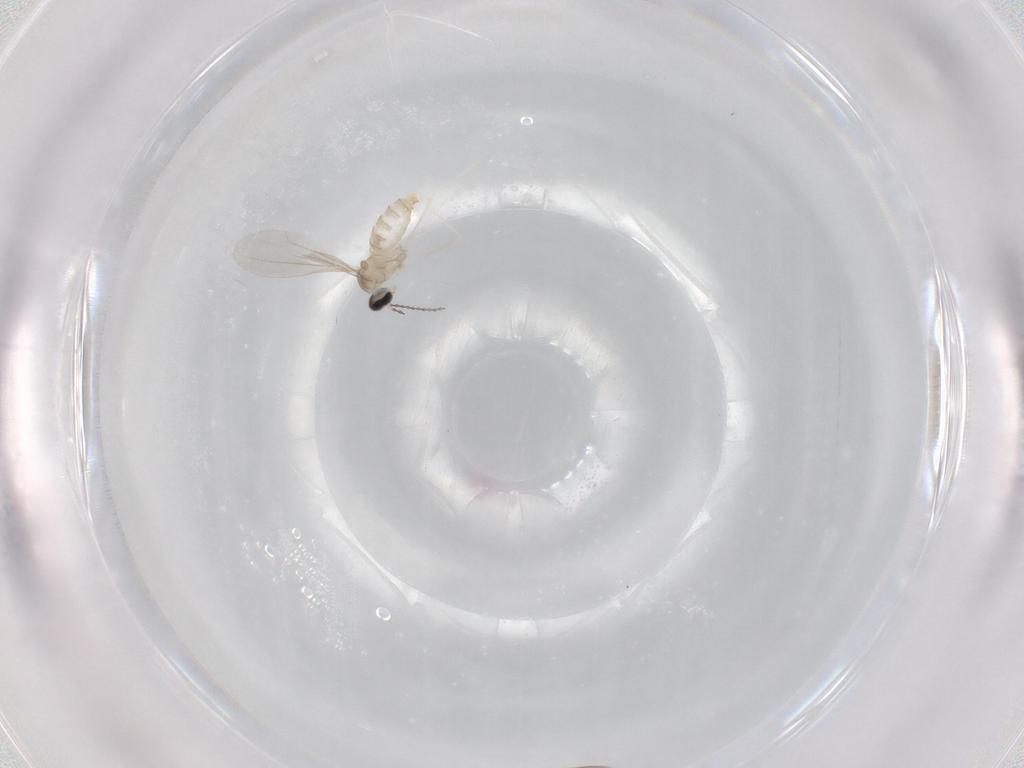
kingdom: Animalia
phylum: Arthropoda
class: Insecta
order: Diptera
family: Cecidomyiidae
